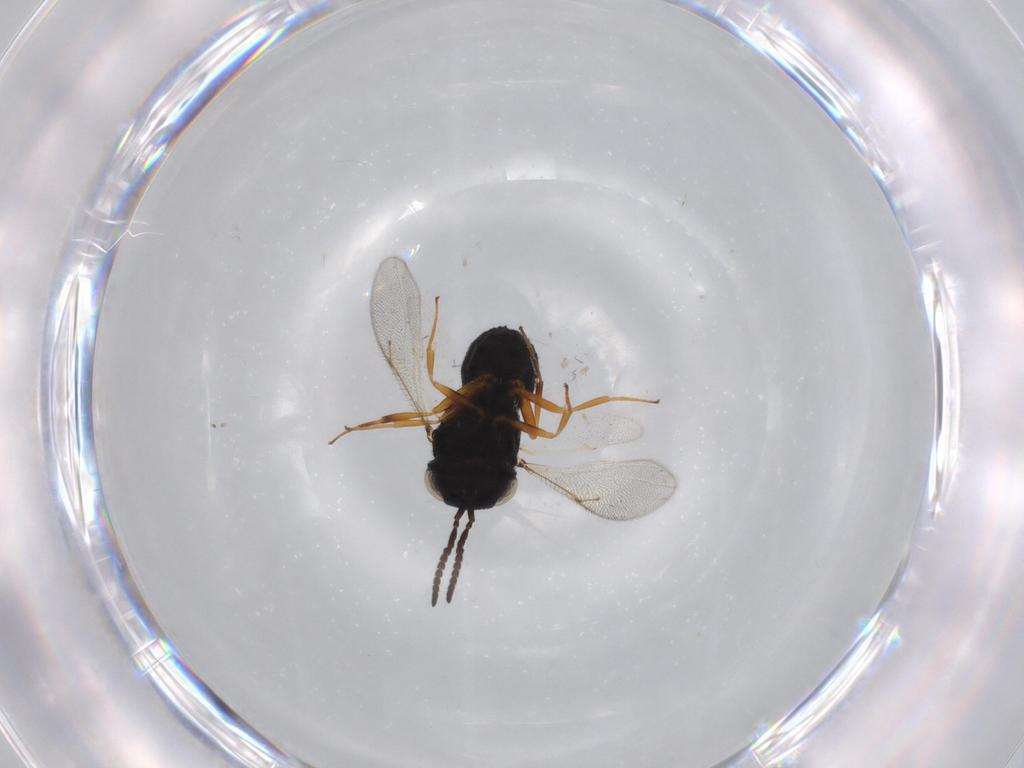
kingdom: Animalia
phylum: Arthropoda
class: Insecta
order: Hymenoptera
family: Scelionidae
